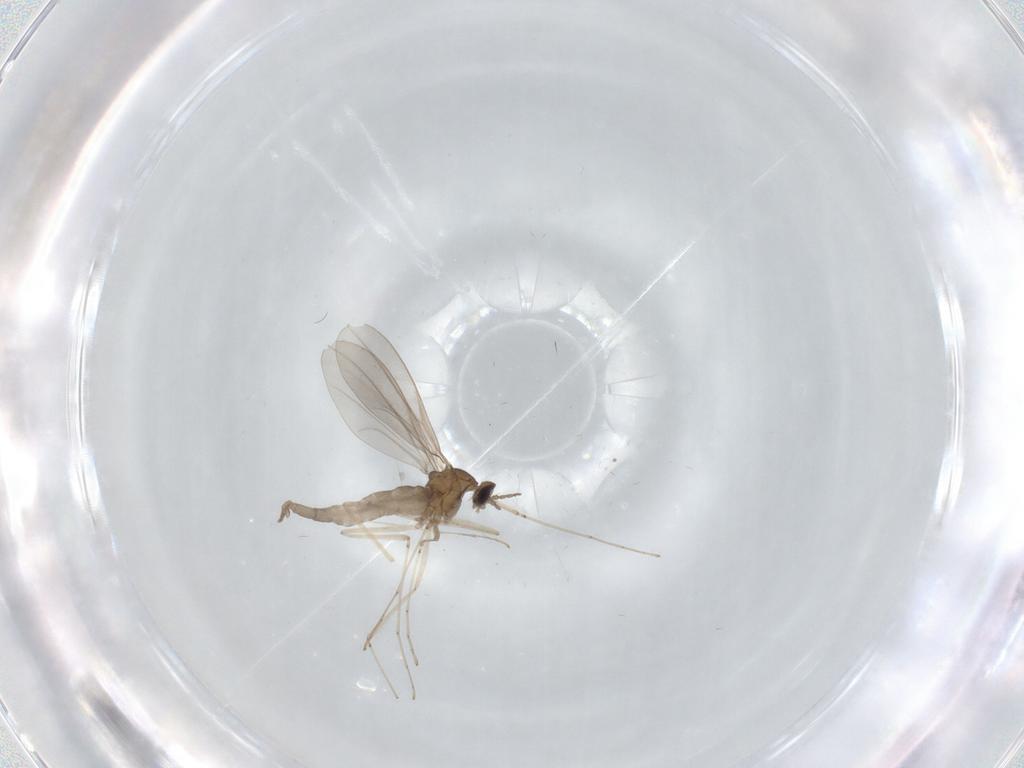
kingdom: Animalia
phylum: Arthropoda
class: Insecta
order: Diptera
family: Cecidomyiidae
